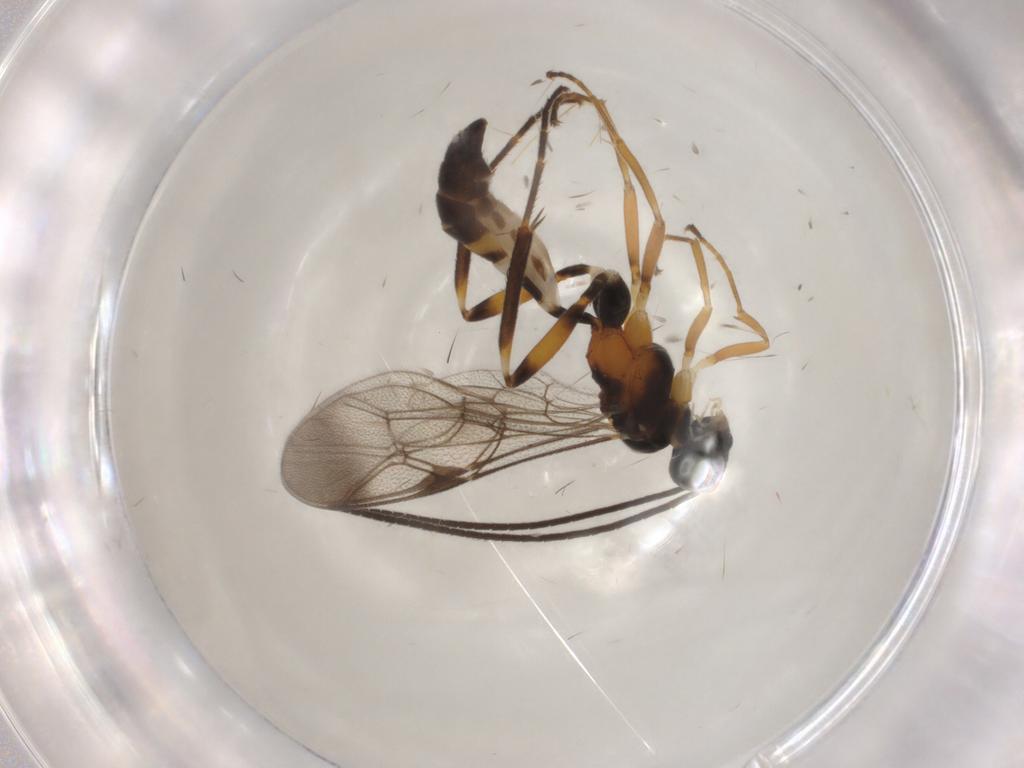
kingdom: Animalia
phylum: Arthropoda
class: Insecta
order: Hymenoptera
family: Ichneumonidae
